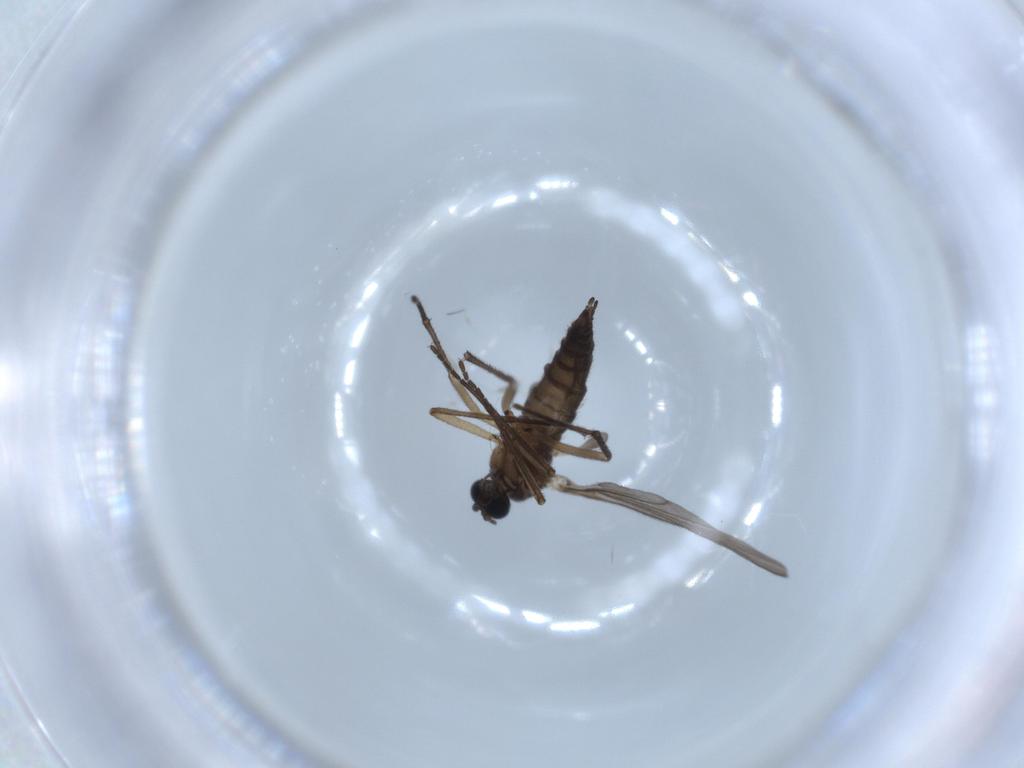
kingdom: Animalia
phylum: Arthropoda
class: Insecta
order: Diptera
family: Sciaridae
